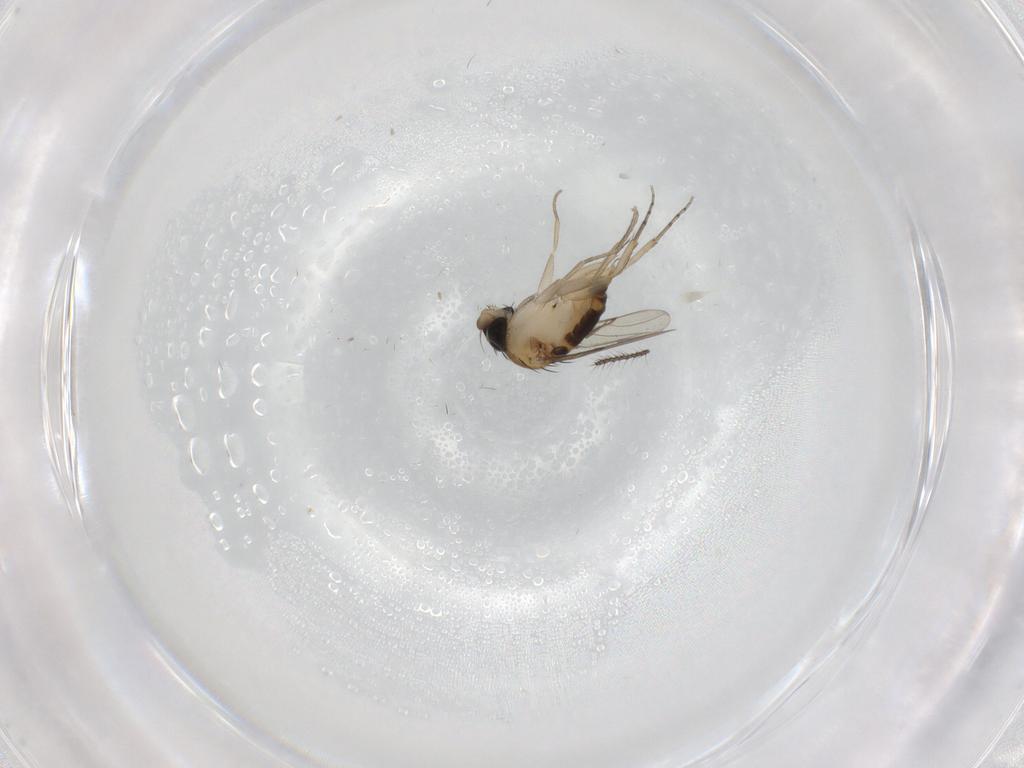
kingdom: Animalia
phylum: Arthropoda
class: Insecta
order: Diptera
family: Phoridae
